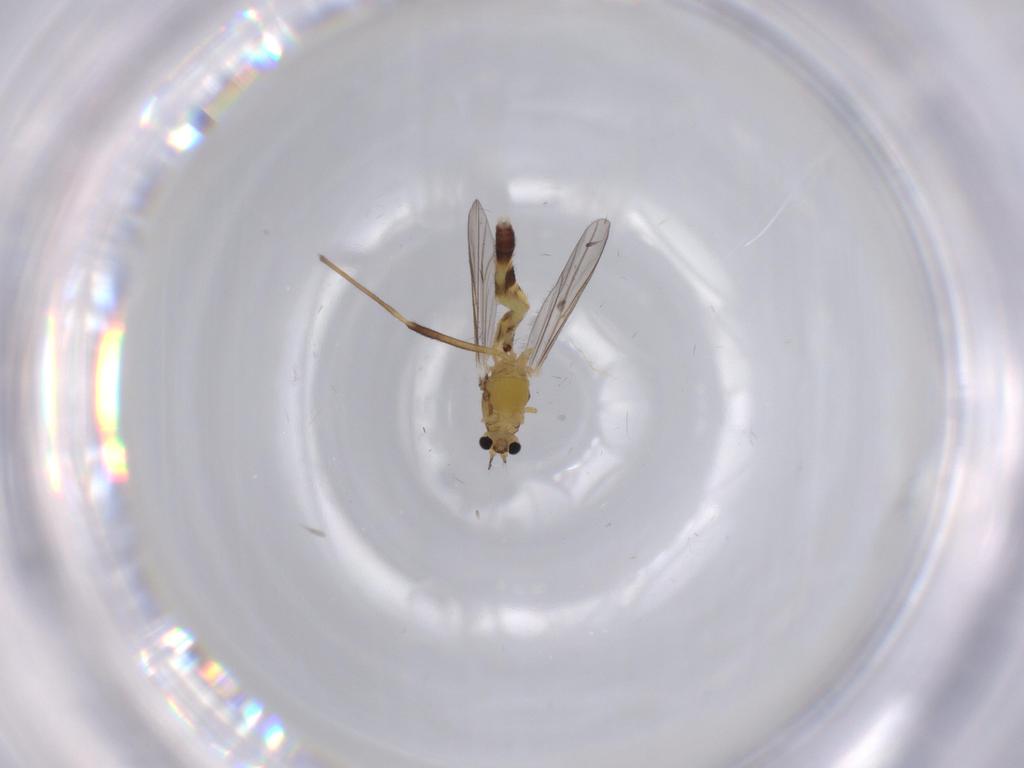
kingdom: Animalia
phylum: Arthropoda
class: Insecta
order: Diptera
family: Chironomidae
